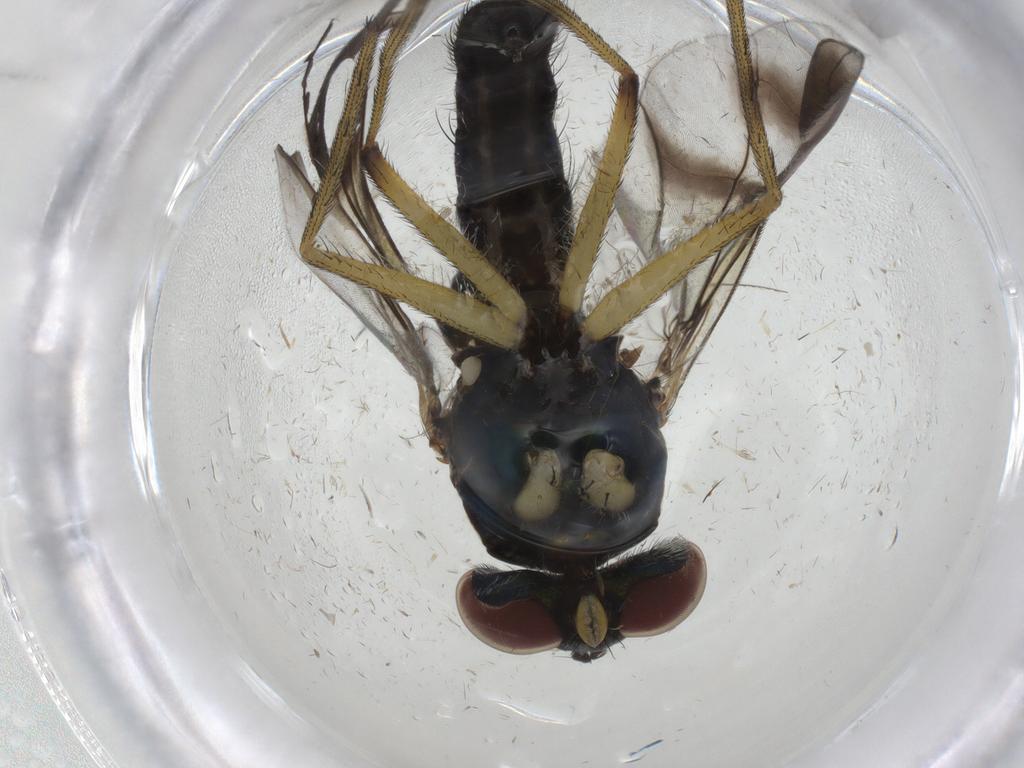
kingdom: Animalia
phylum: Arthropoda
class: Insecta
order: Diptera
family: Dolichopodidae
